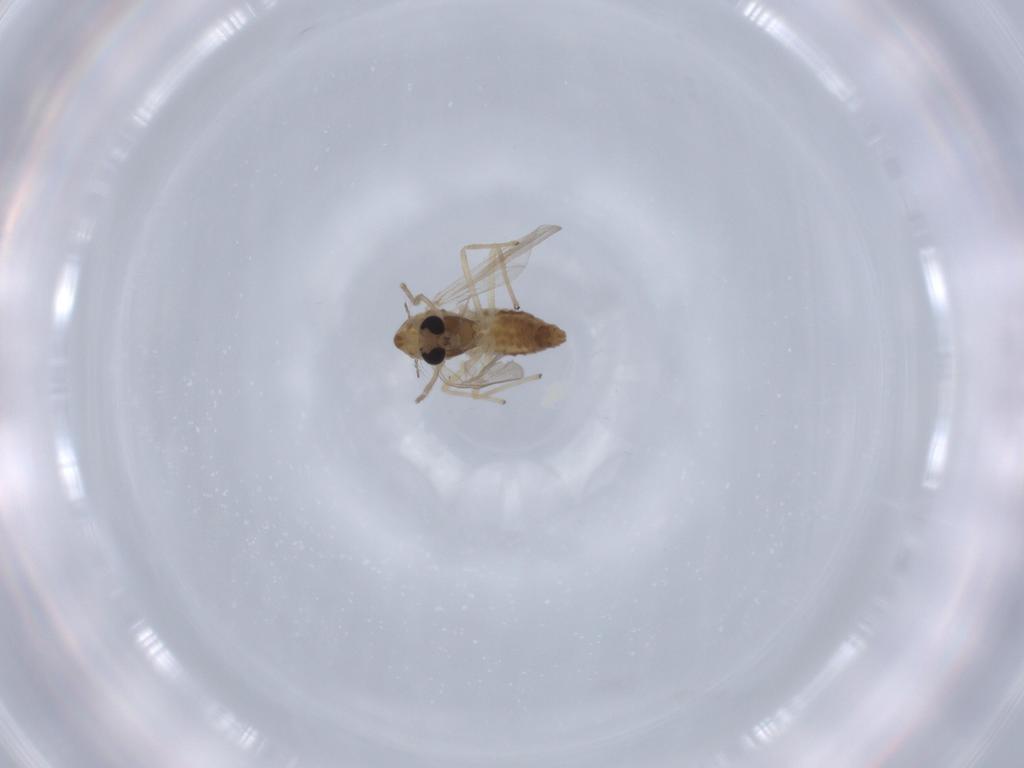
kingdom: Animalia
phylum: Arthropoda
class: Insecta
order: Diptera
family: Chironomidae
